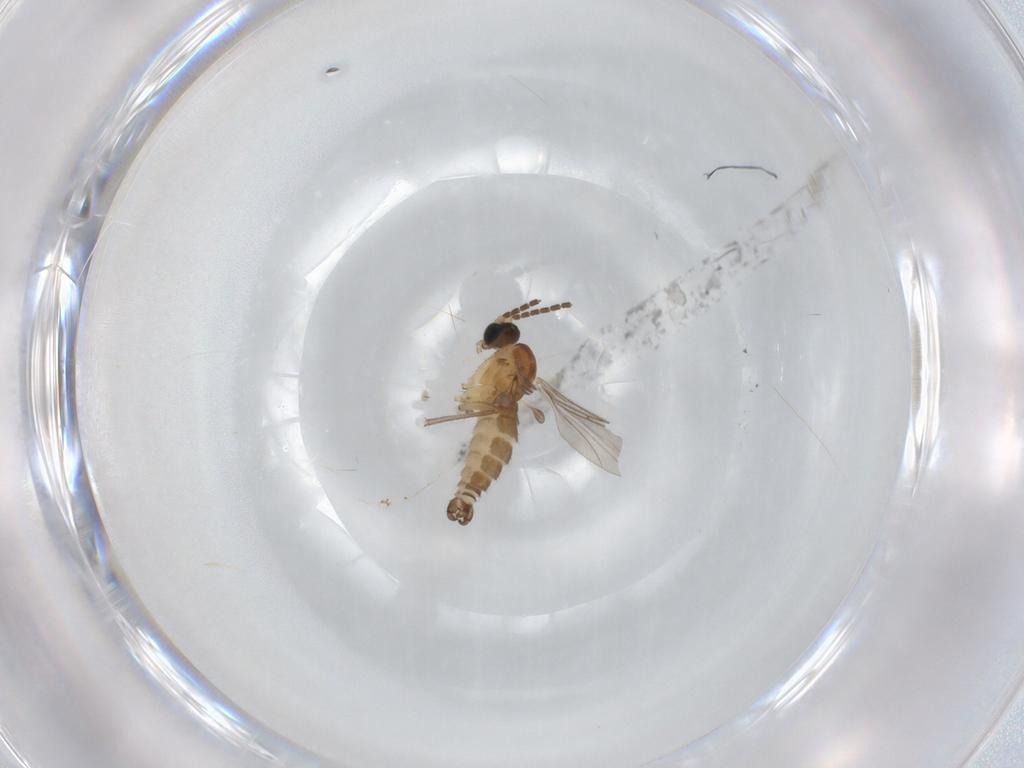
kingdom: Animalia
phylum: Arthropoda
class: Insecta
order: Diptera
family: Sciaridae
